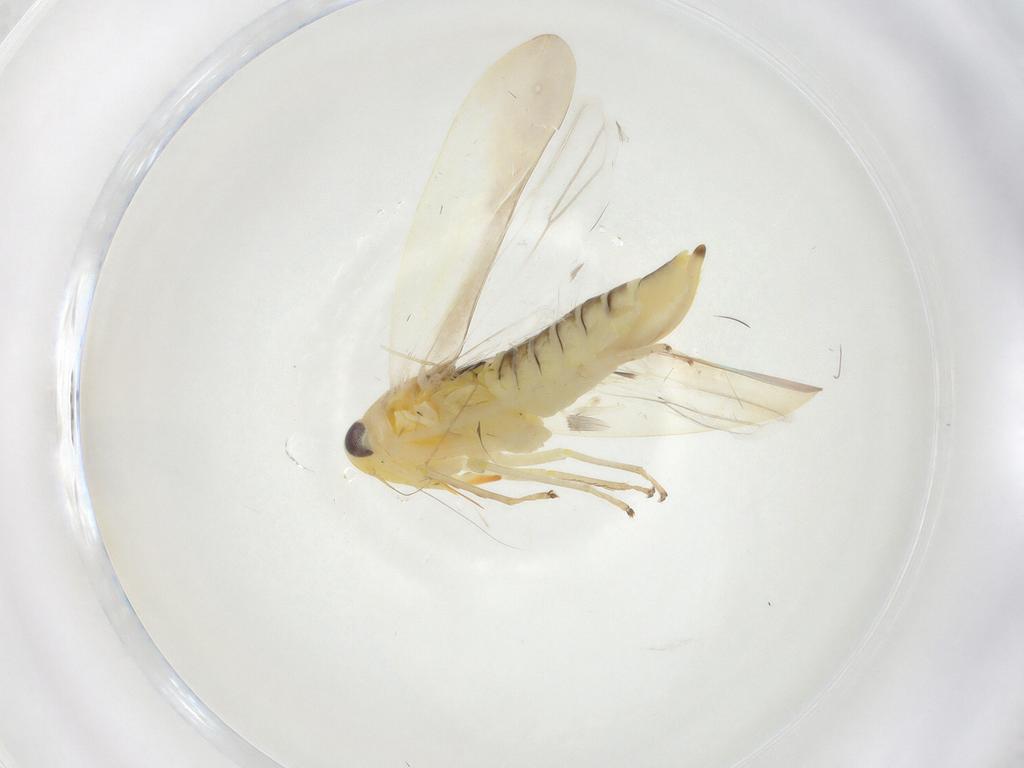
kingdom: Animalia
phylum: Arthropoda
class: Insecta
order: Hemiptera
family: Cicadellidae
